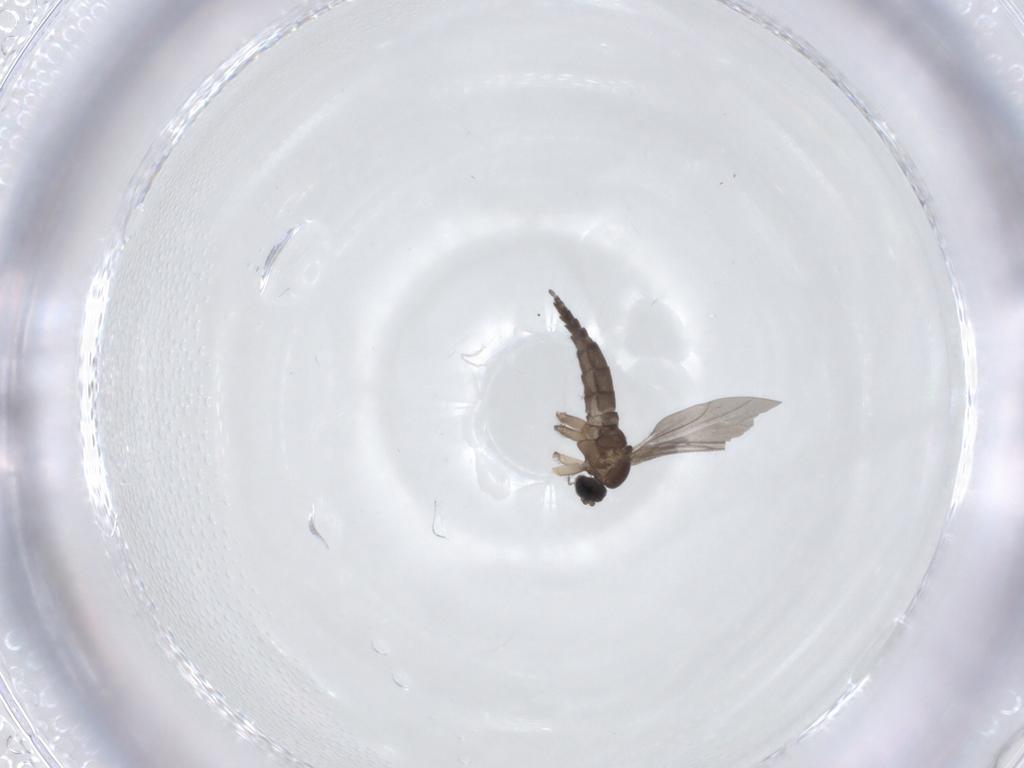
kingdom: Animalia
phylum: Arthropoda
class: Insecta
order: Diptera
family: Sciaridae
